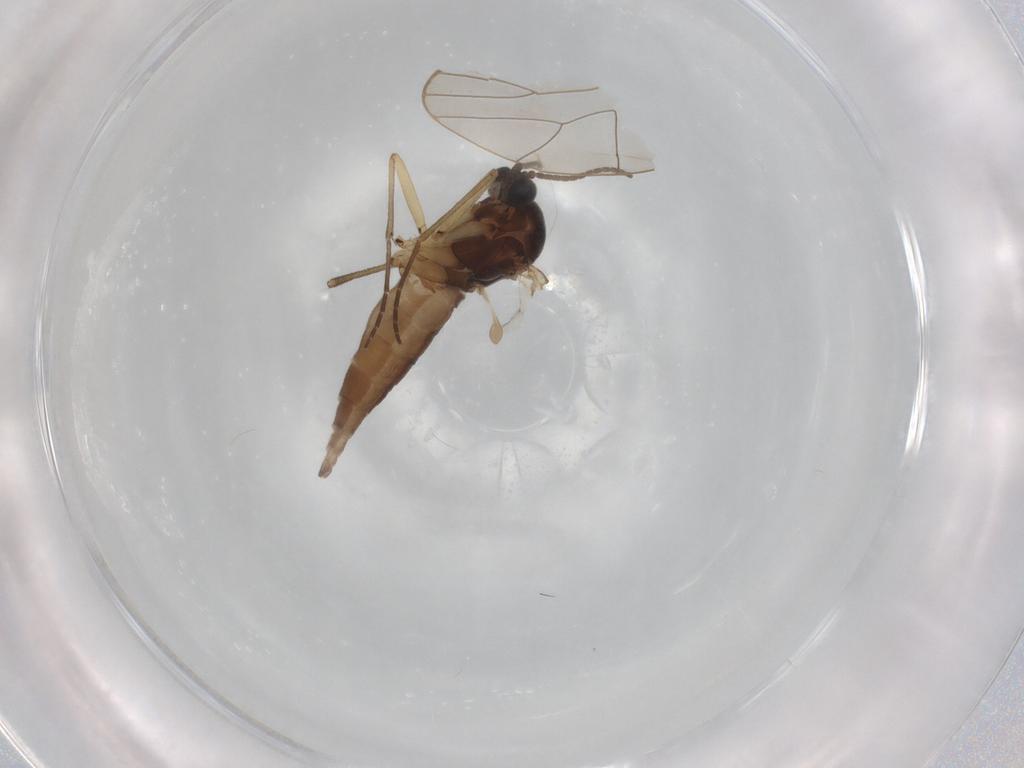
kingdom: Animalia
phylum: Arthropoda
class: Insecta
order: Diptera
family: Sciaridae
